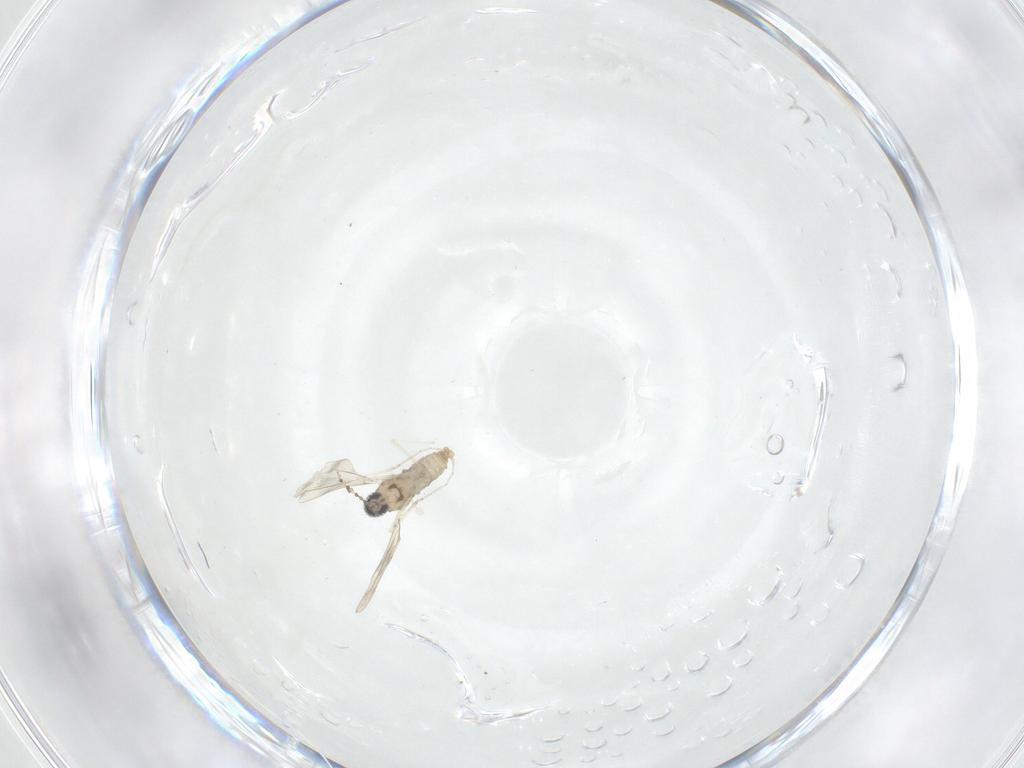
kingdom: Animalia
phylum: Arthropoda
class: Insecta
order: Diptera
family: Cecidomyiidae
